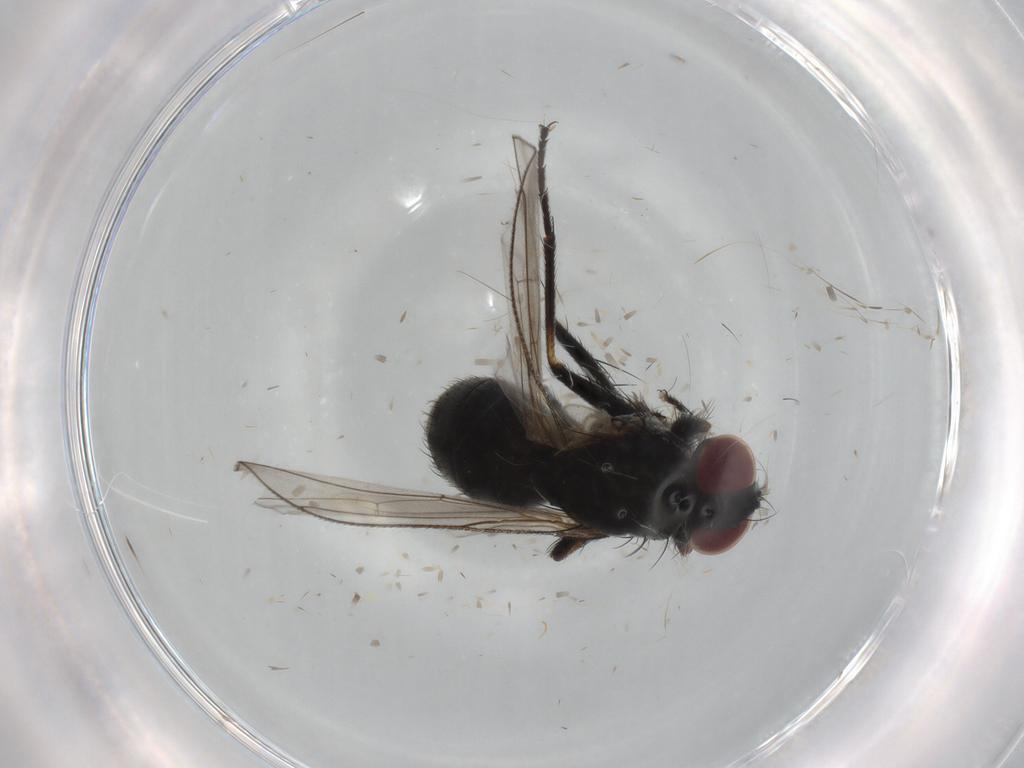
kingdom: Animalia
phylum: Arthropoda
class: Insecta
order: Diptera
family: Muscidae
